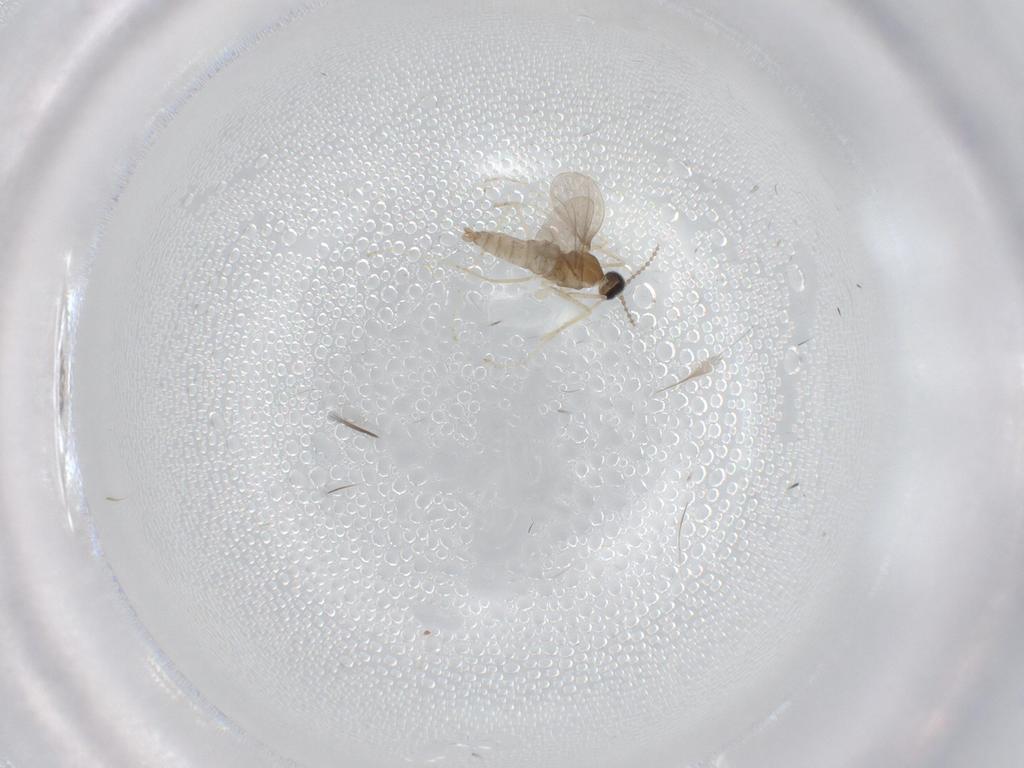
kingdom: Animalia
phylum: Arthropoda
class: Insecta
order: Diptera
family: Cecidomyiidae
